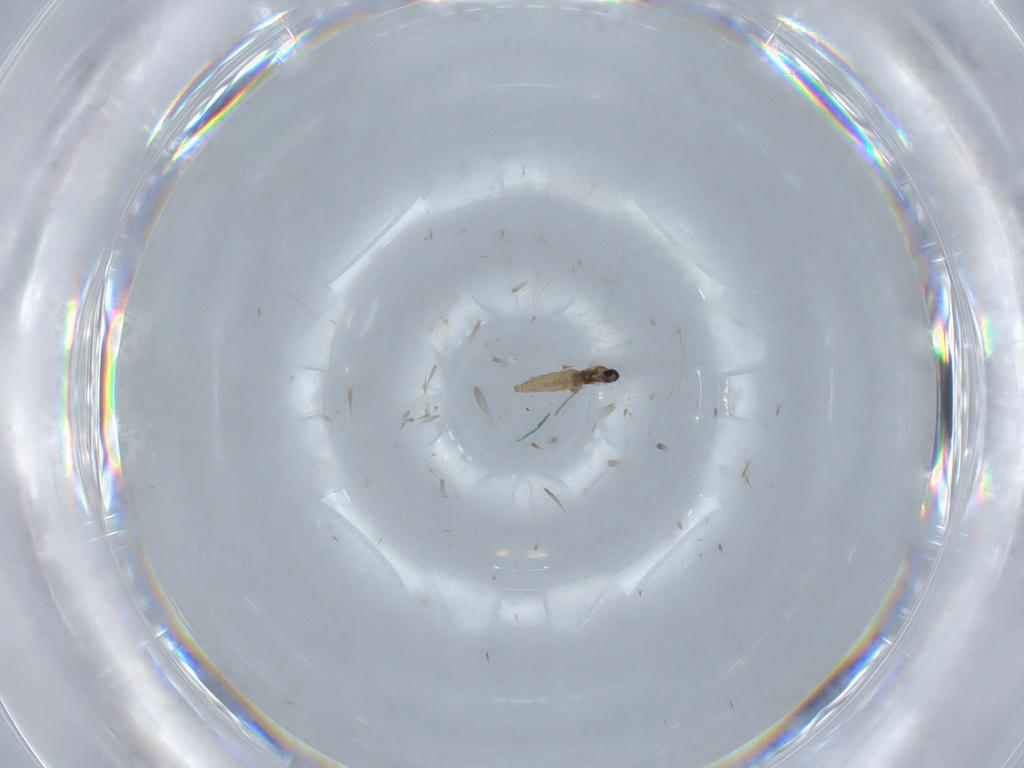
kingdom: Animalia
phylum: Arthropoda
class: Insecta
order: Diptera
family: Cecidomyiidae
